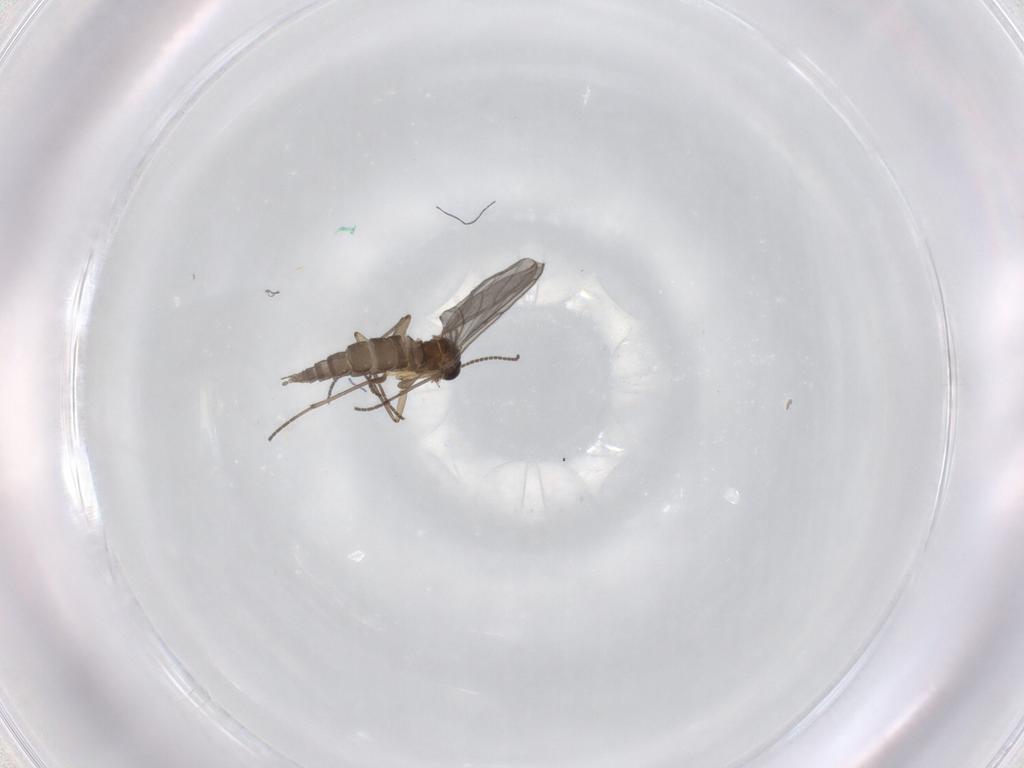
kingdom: Animalia
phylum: Arthropoda
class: Insecta
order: Diptera
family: Sciaridae
